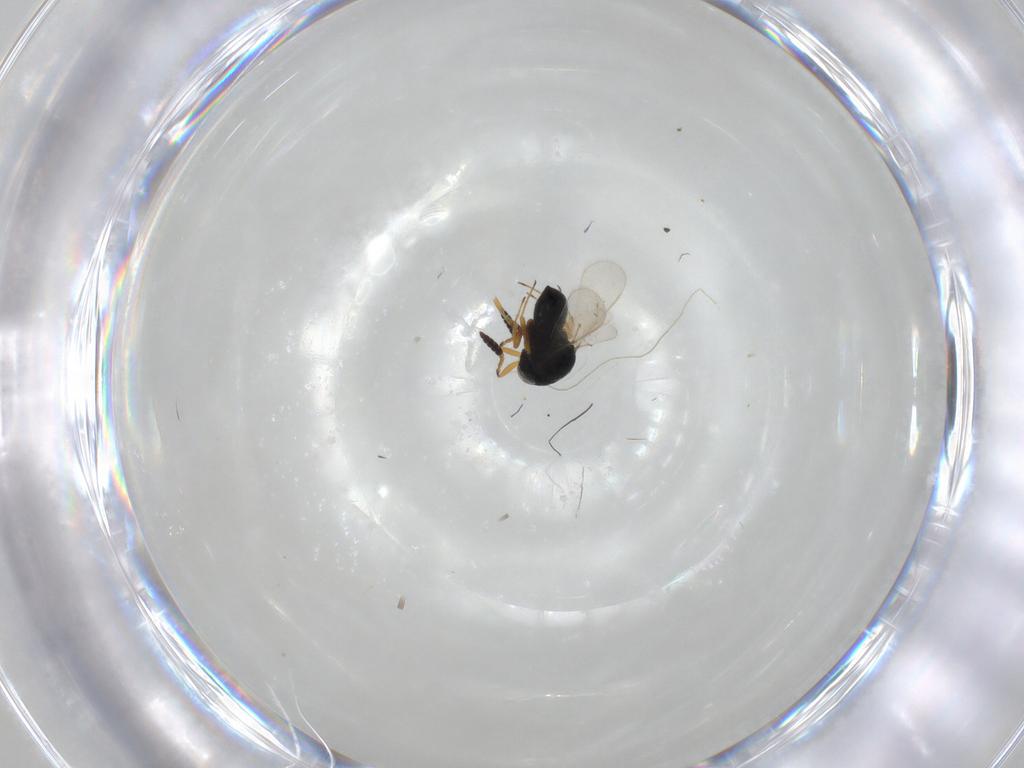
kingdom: Animalia
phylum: Arthropoda
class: Insecta
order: Hymenoptera
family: Scelionidae
